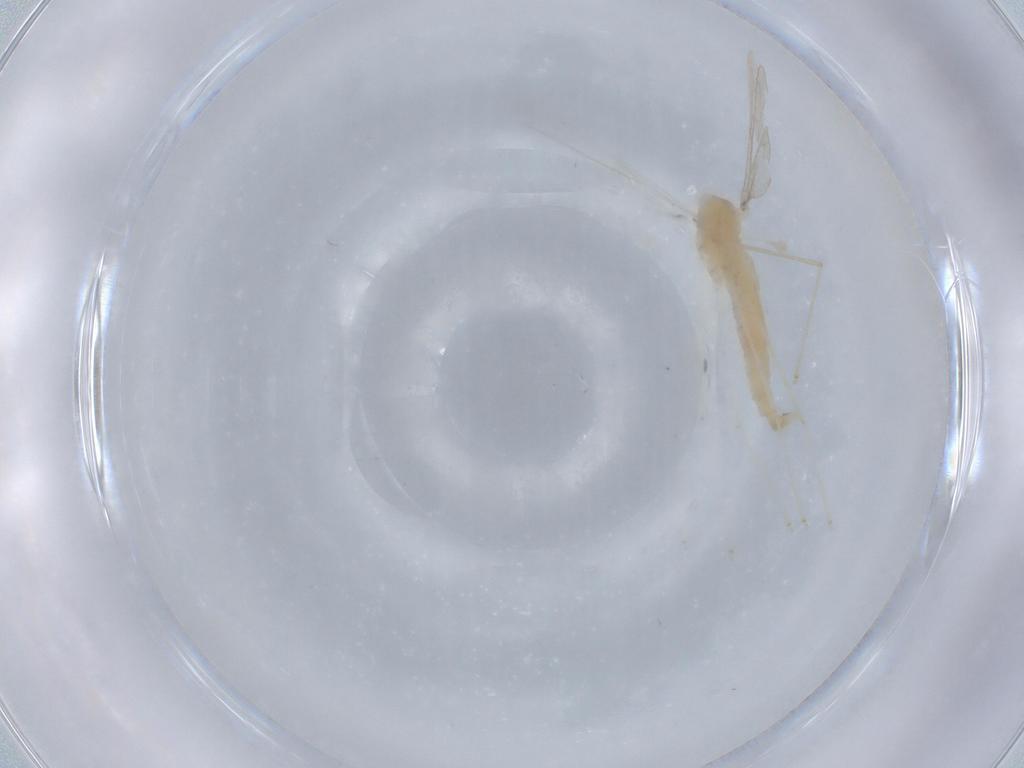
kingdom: Animalia
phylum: Arthropoda
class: Insecta
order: Diptera
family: Cecidomyiidae
